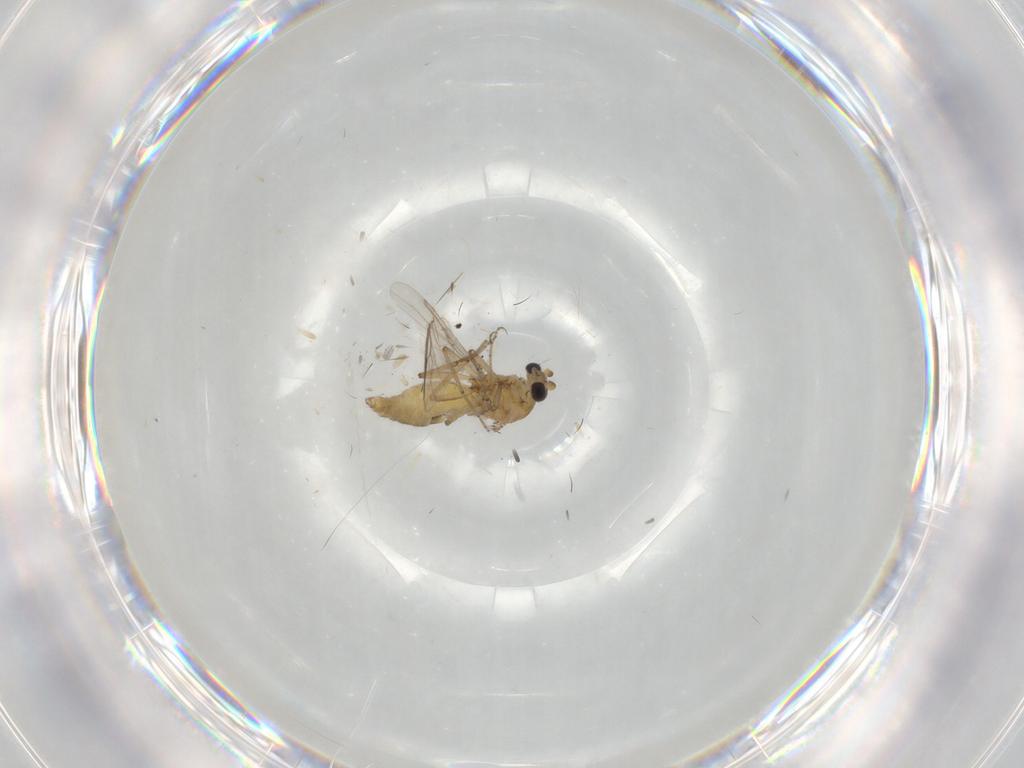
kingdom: Animalia
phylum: Arthropoda
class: Insecta
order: Diptera
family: Ceratopogonidae
